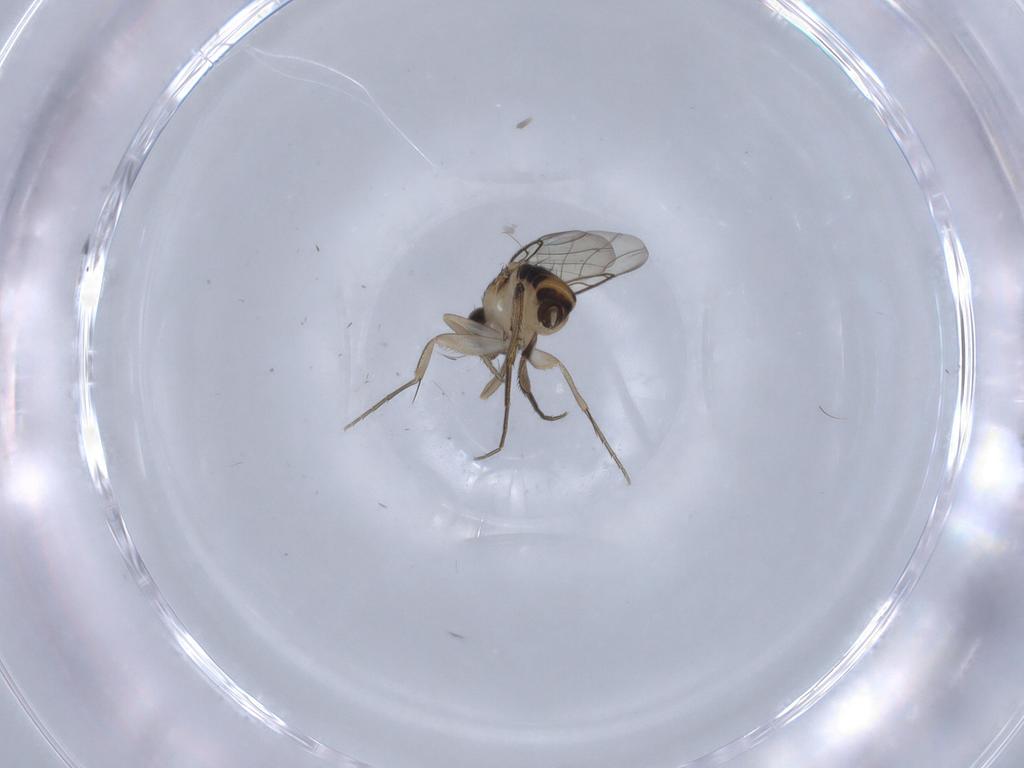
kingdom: Animalia
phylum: Arthropoda
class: Insecta
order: Diptera
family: Phoridae
